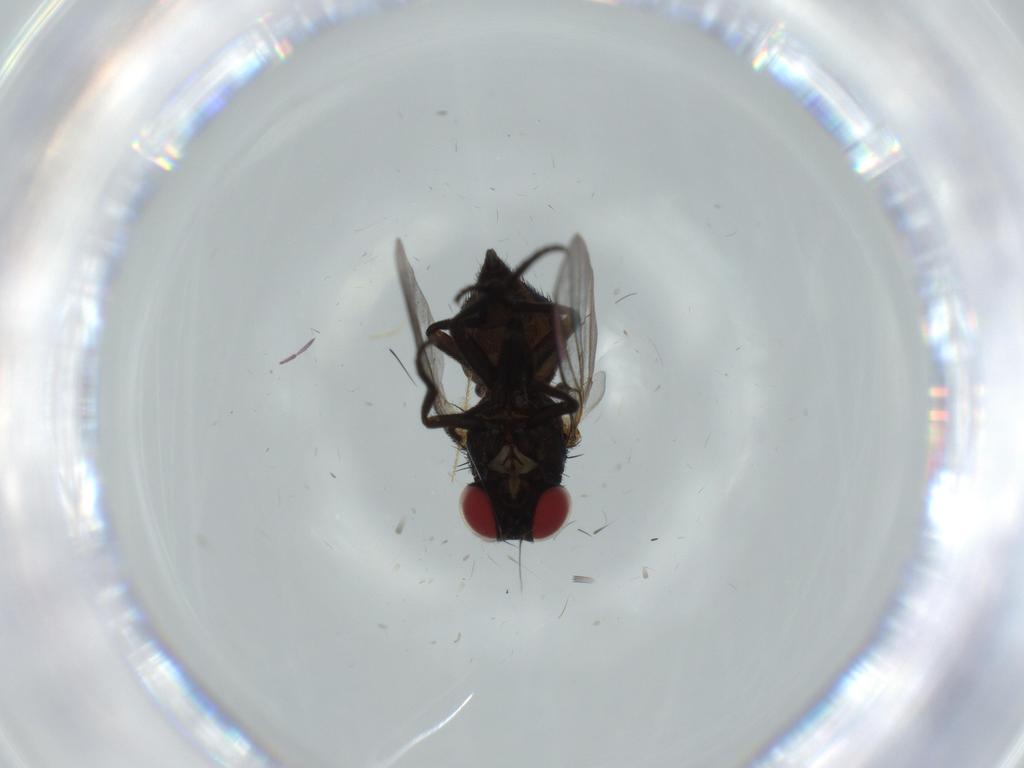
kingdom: Animalia
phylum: Arthropoda
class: Insecta
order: Diptera
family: Agromyzidae
